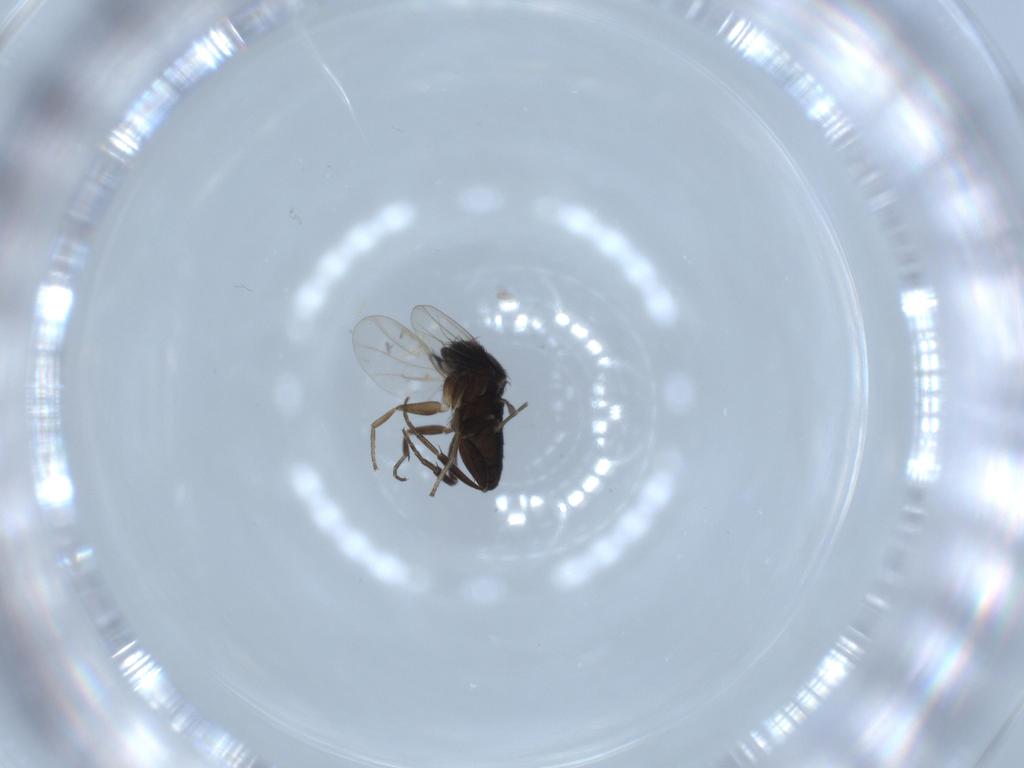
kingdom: Animalia
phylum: Arthropoda
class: Insecta
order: Diptera
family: Phoridae
